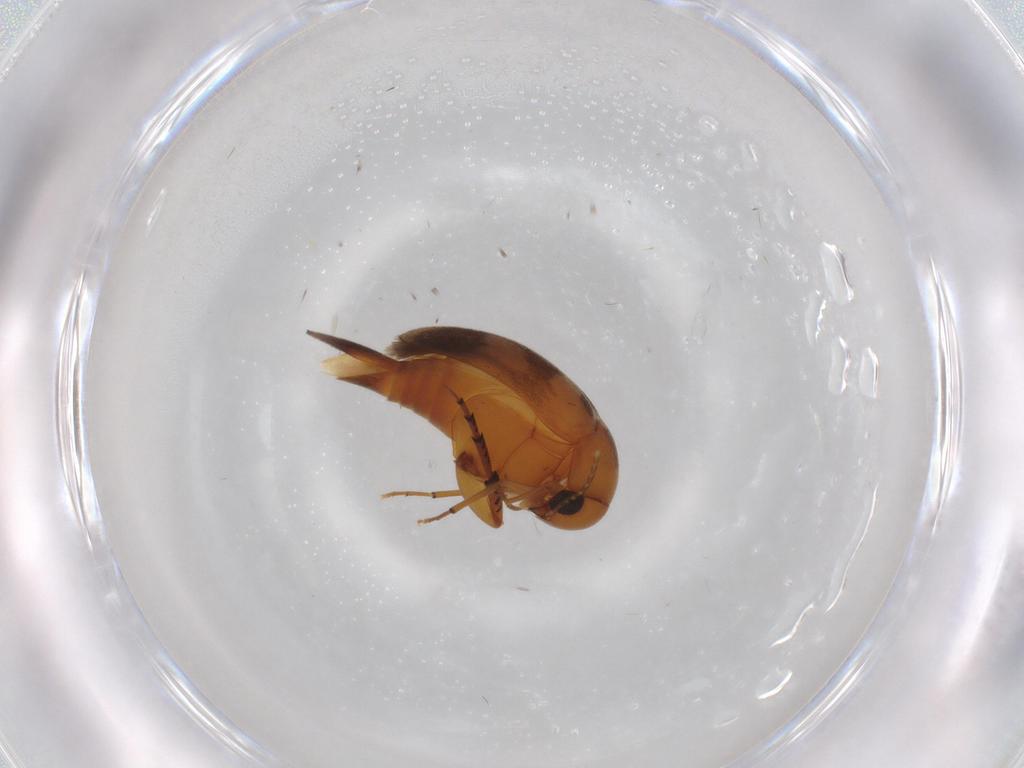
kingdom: Animalia
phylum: Arthropoda
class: Insecta
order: Coleoptera
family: Mordellidae
